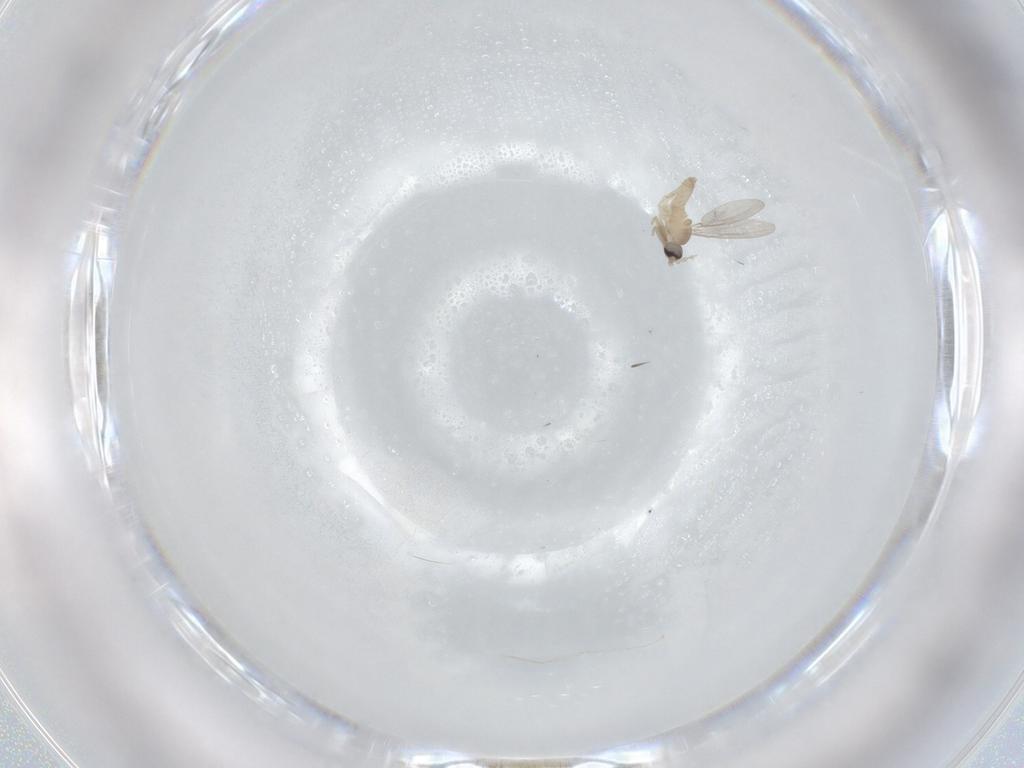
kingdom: Animalia
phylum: Arthropoda
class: Insecta
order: Diptera
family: Cecidomyiidae
